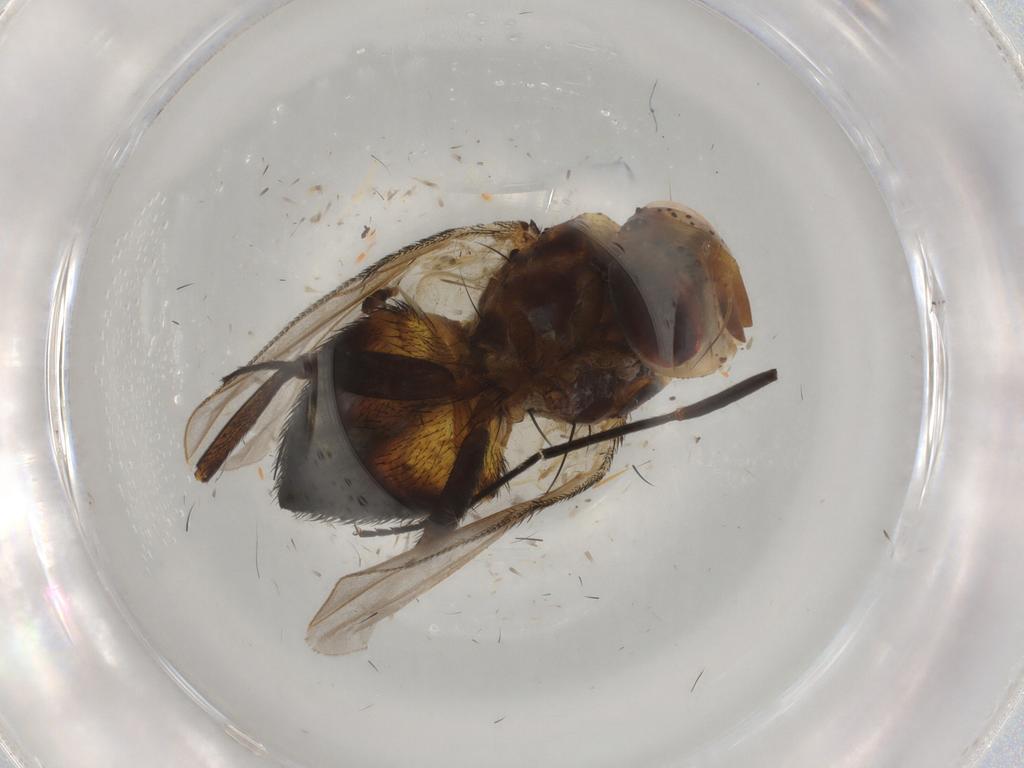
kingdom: Animalia
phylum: Arthropoda
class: Insecta
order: Diptera
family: Tachinidae
